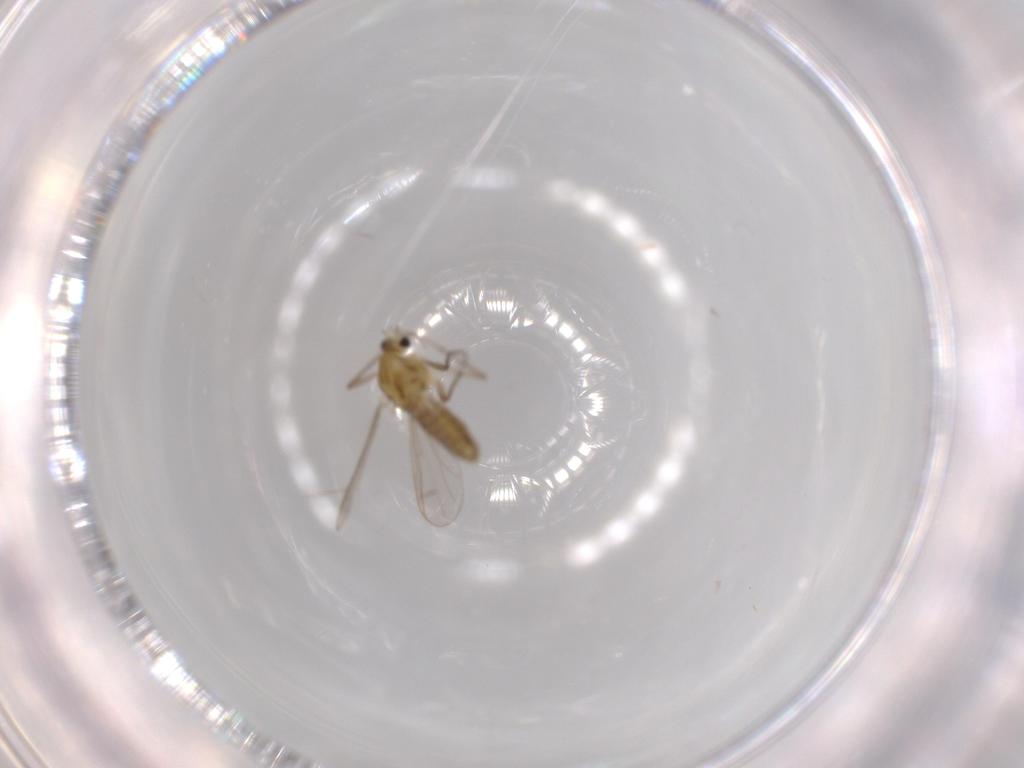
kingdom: Animalia
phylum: Arthropoda
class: Insecta
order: Diptera
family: Chironomidae
